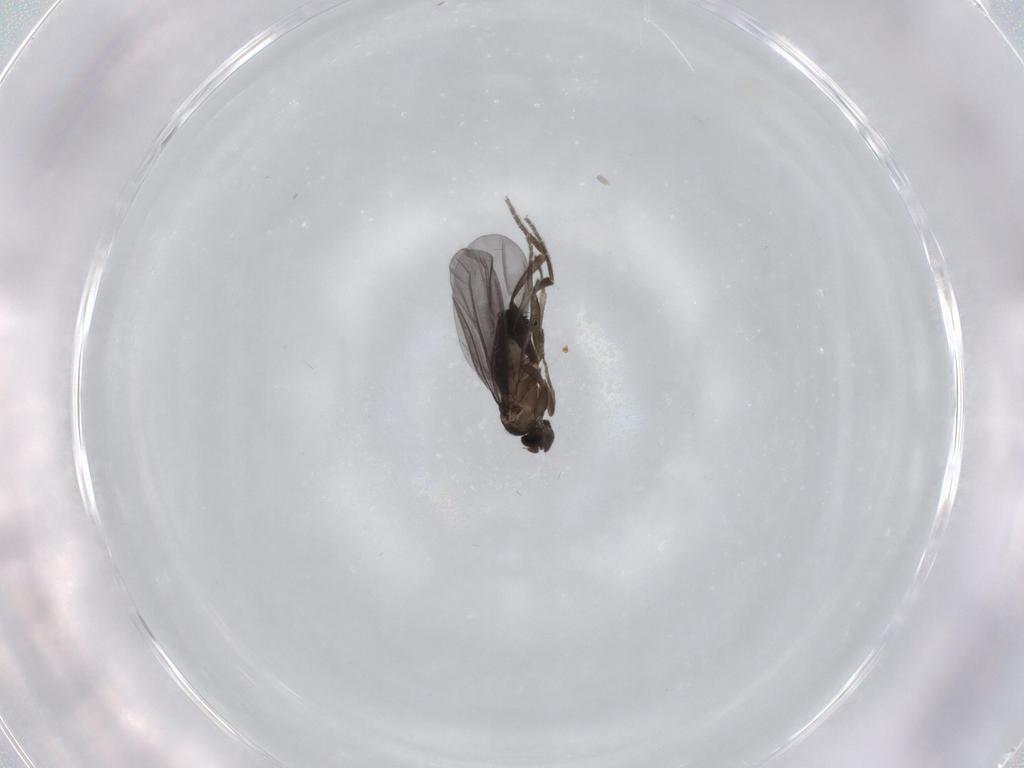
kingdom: Animalia
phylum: Arthropoda
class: Insecta
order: Diptera
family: Phoridae
